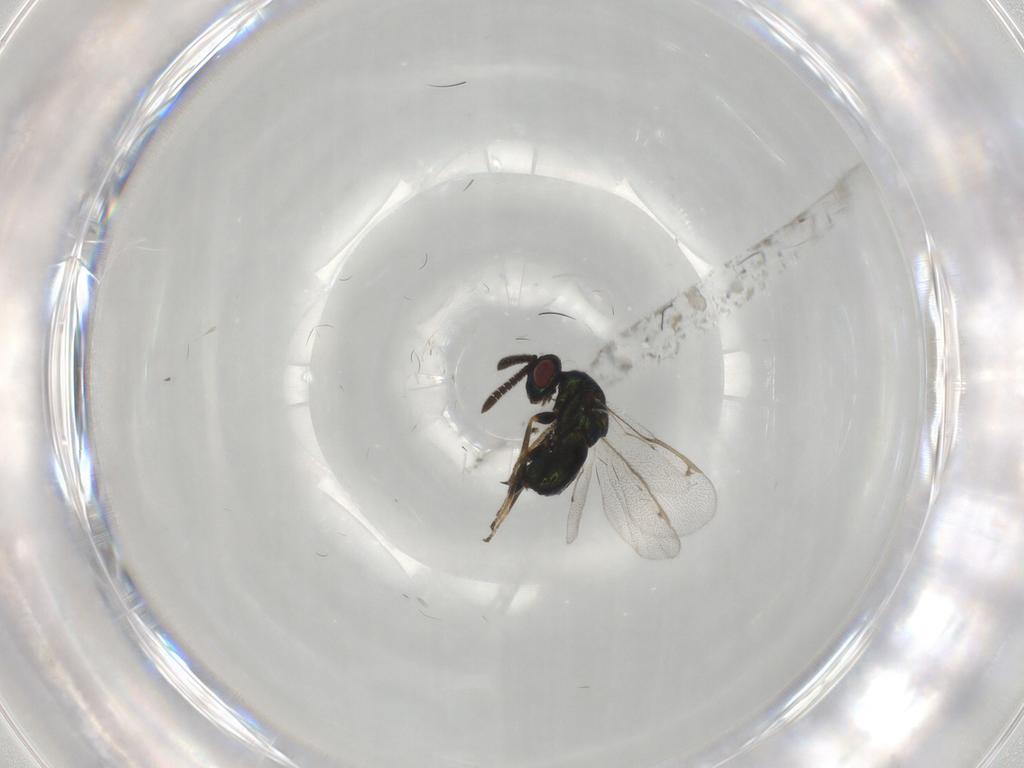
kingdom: Animalia
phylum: Arthropoda
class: Insecta
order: Hymenoptera
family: Torymidae
